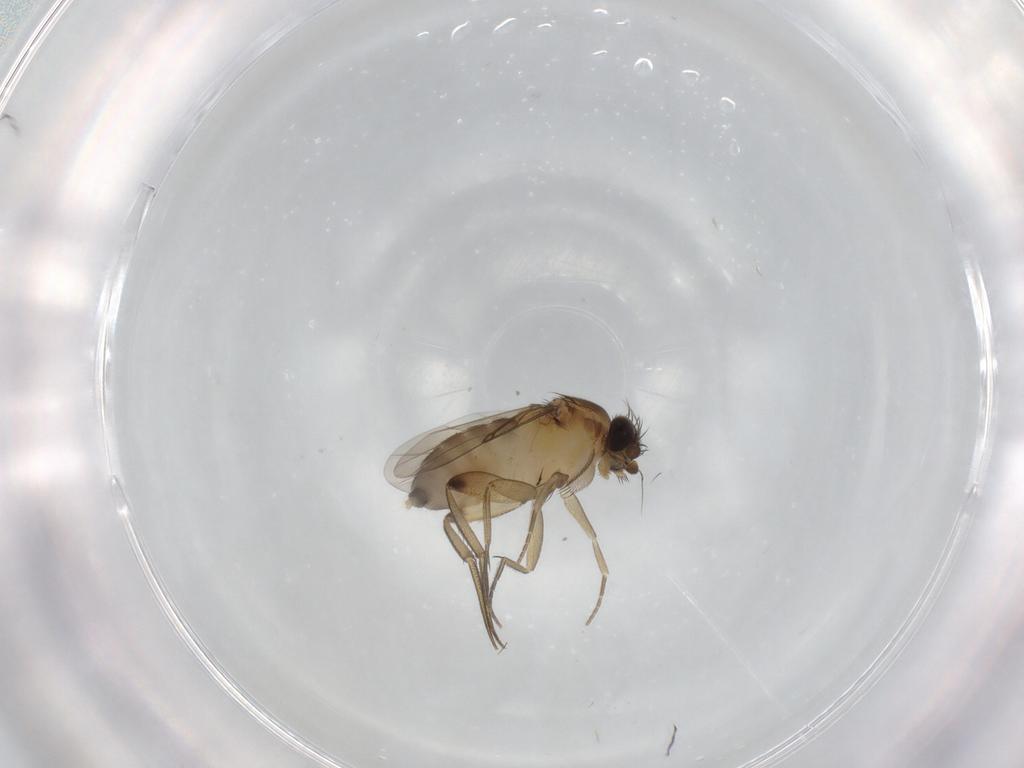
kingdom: Animalia
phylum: Arthropoda
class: Insecta
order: Diptera
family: Phoridae
